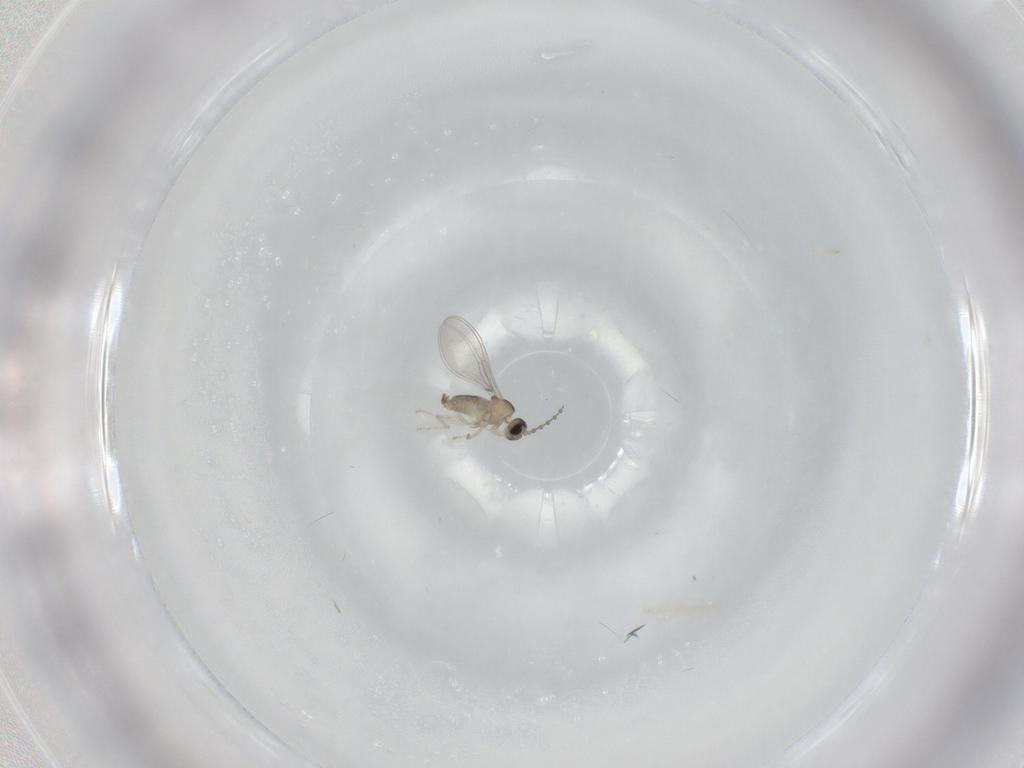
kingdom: Animalia
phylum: Arthropoda
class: Insecta
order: Diptera
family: Cecidomyiidae
